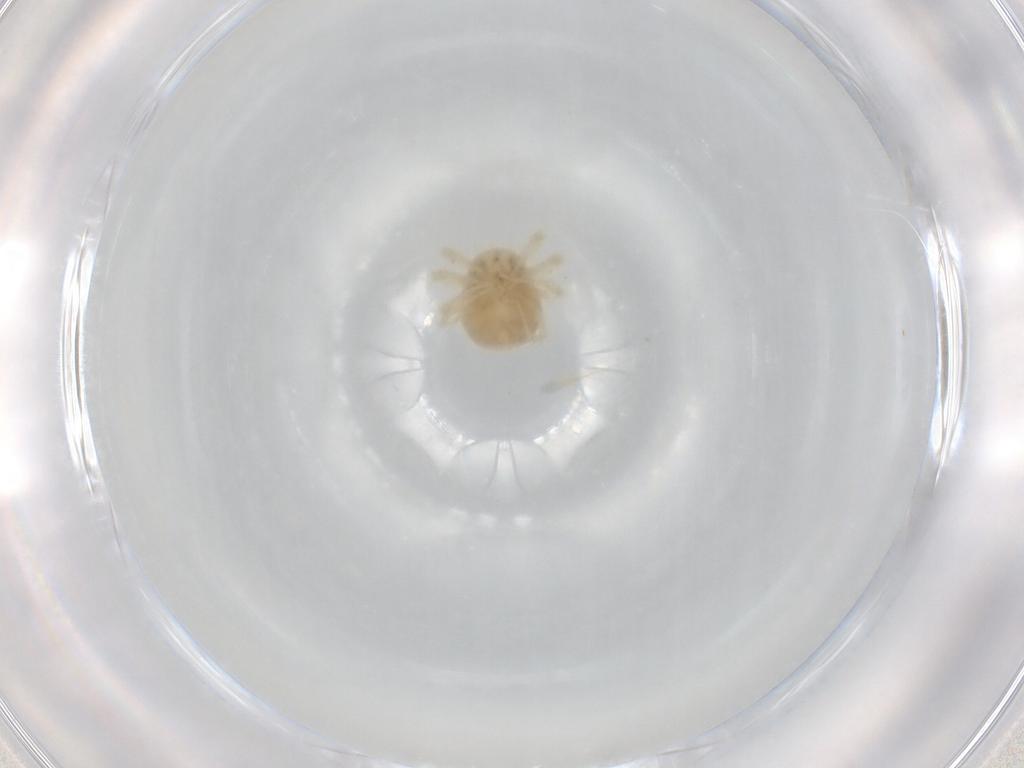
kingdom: Animalia
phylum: Arthropoda
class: Arachnida
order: Trombidiformes
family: Anystidae
